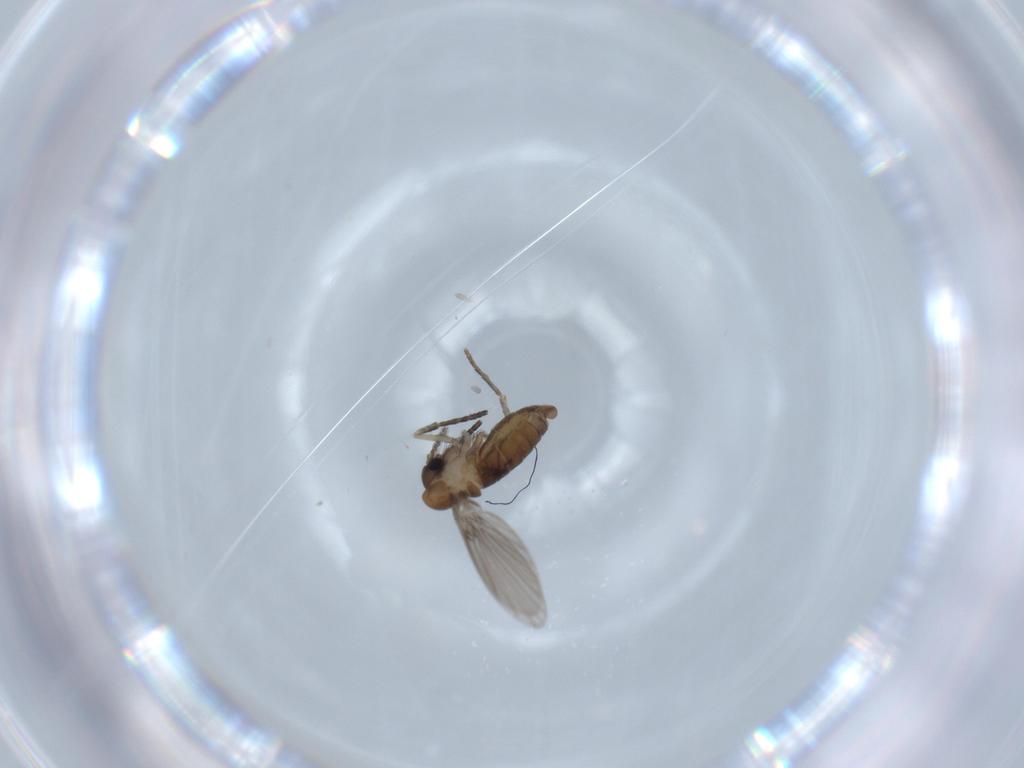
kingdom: Animalia
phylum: Arthropoda
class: Insecta
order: Diptera
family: Psychodidae
